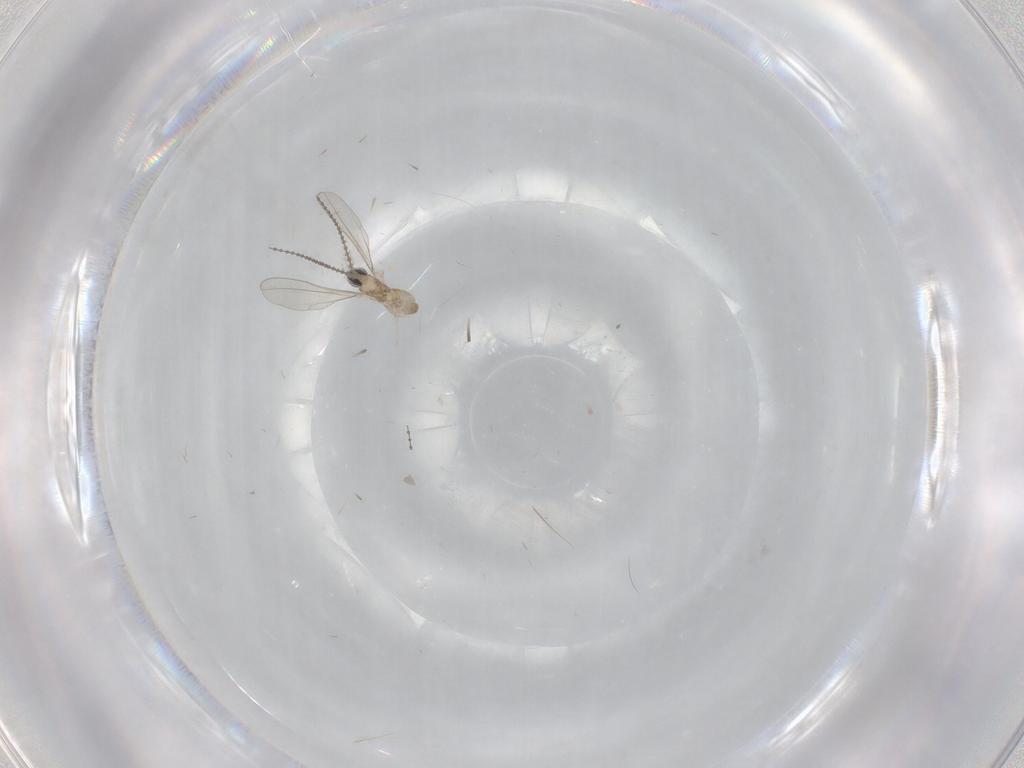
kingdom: Animalia
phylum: Arthropoda
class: Insecta
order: Diptera
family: Cecidomyiidae
